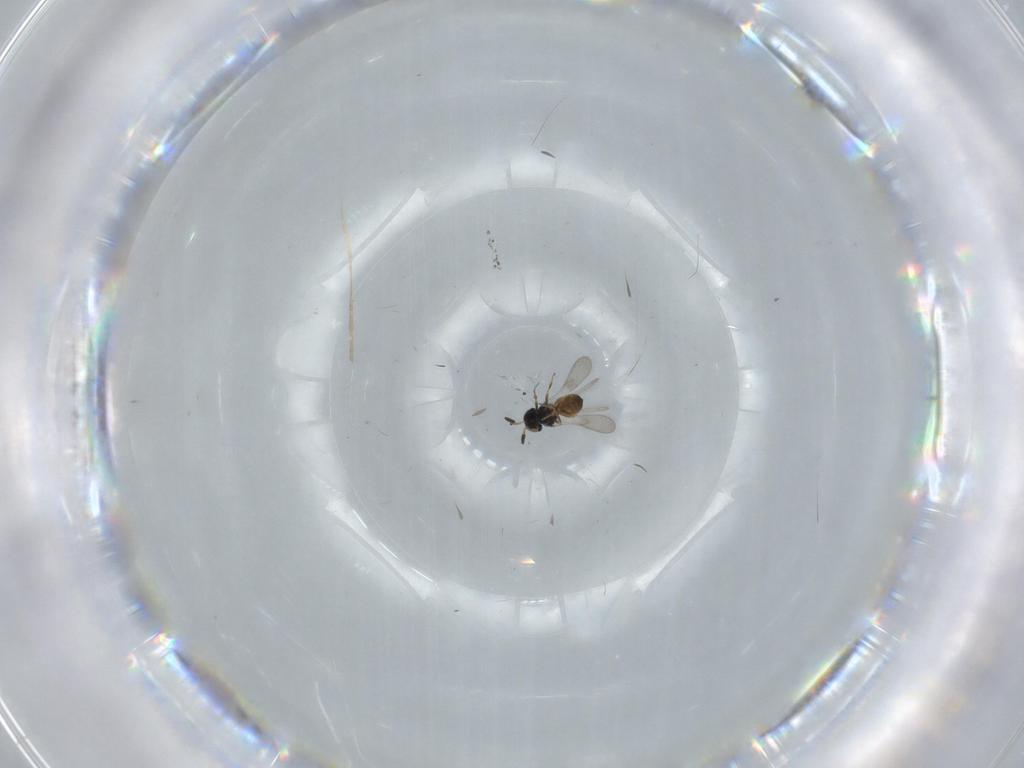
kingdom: Animalia
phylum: Arthropoda
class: Insecta
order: Hymenoptera
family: Scelionidae
